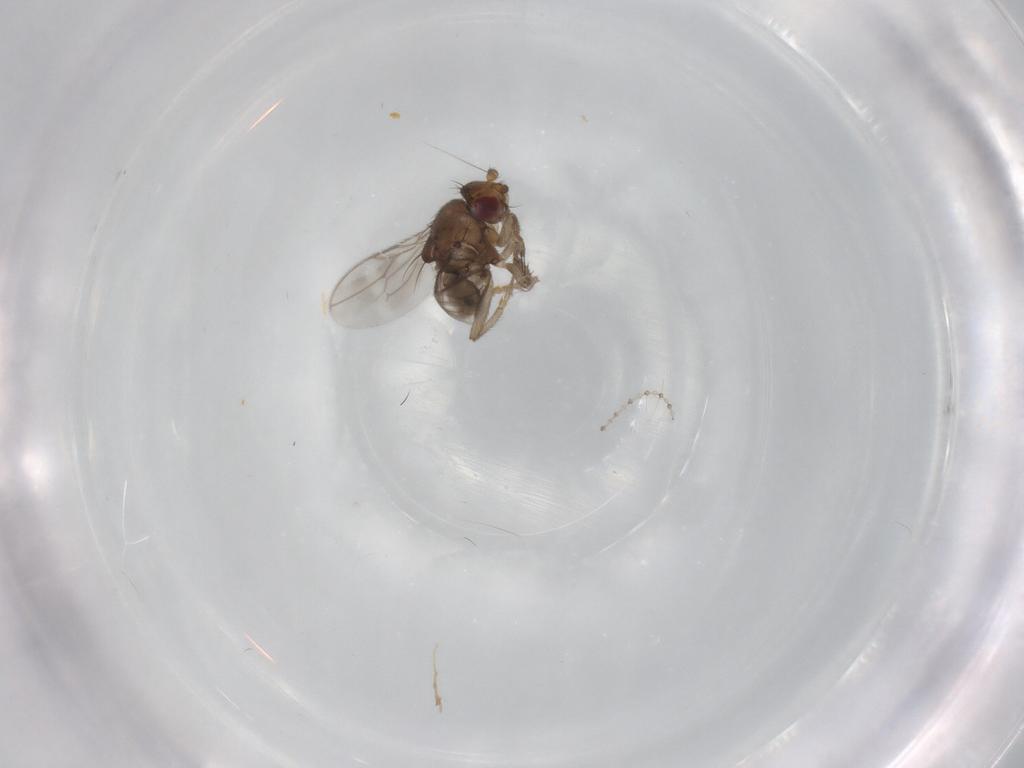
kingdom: Animalia
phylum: Arthropoda
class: Insecta
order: Diptera
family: Sphaeroceridae
